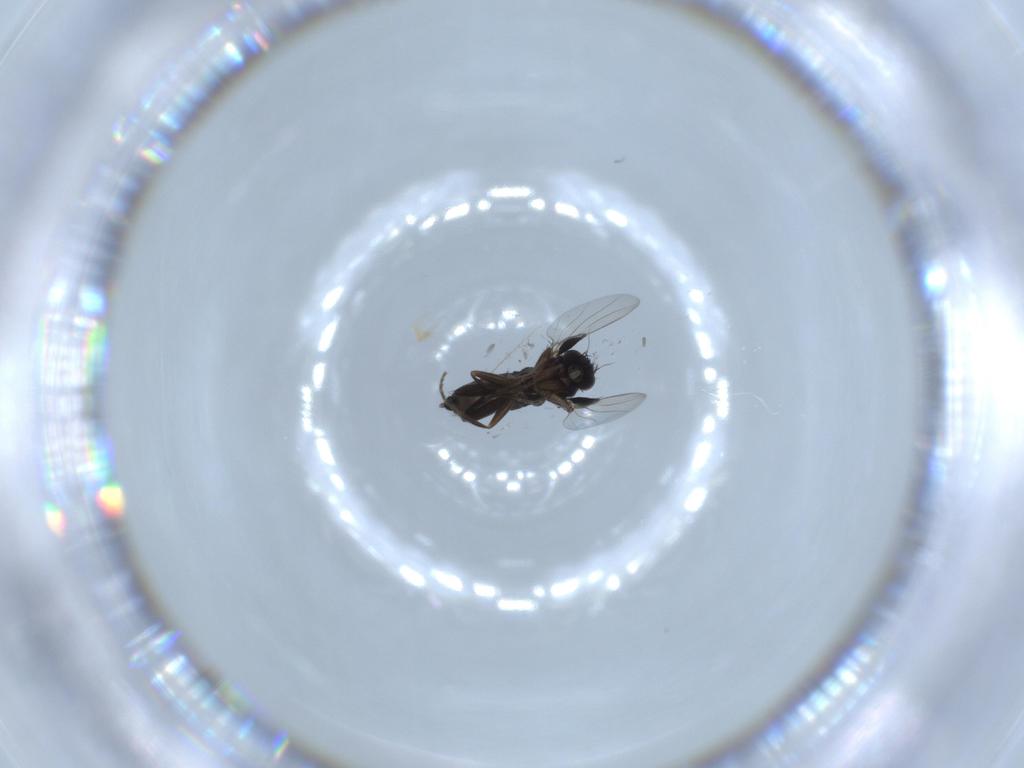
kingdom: Animalia
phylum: Arthropoda
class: Insecta
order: Diptera
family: Phoridae
